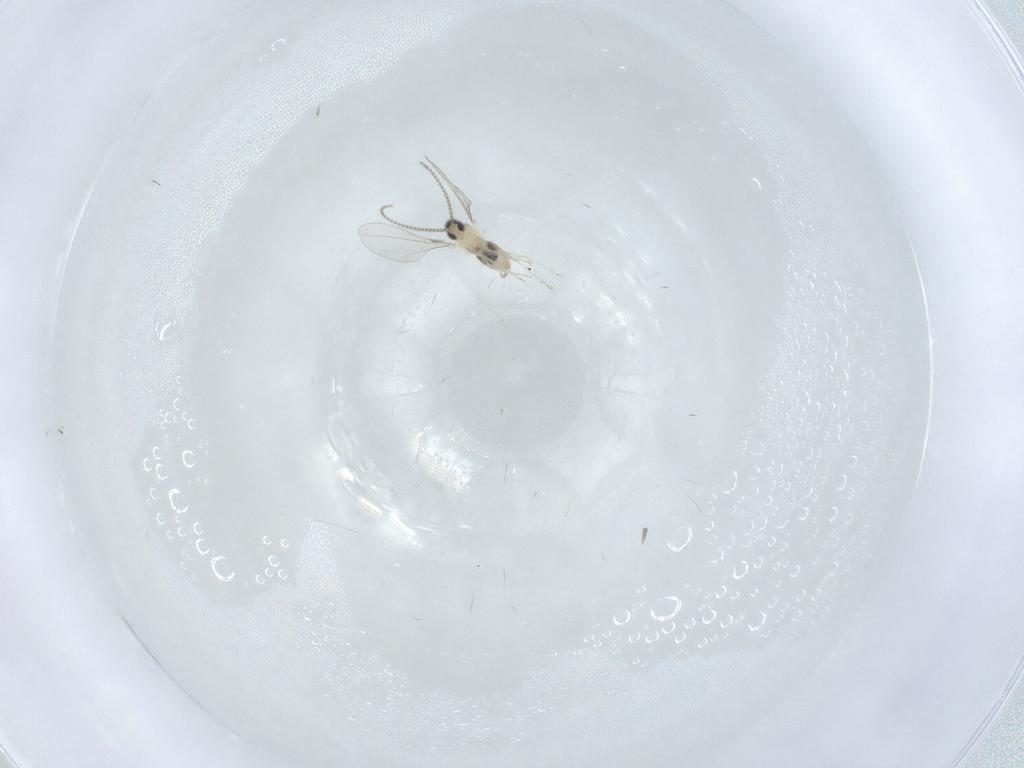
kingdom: Animalia
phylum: Arthropoda
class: Insecta
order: Diptera
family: Cecidomyiidae
